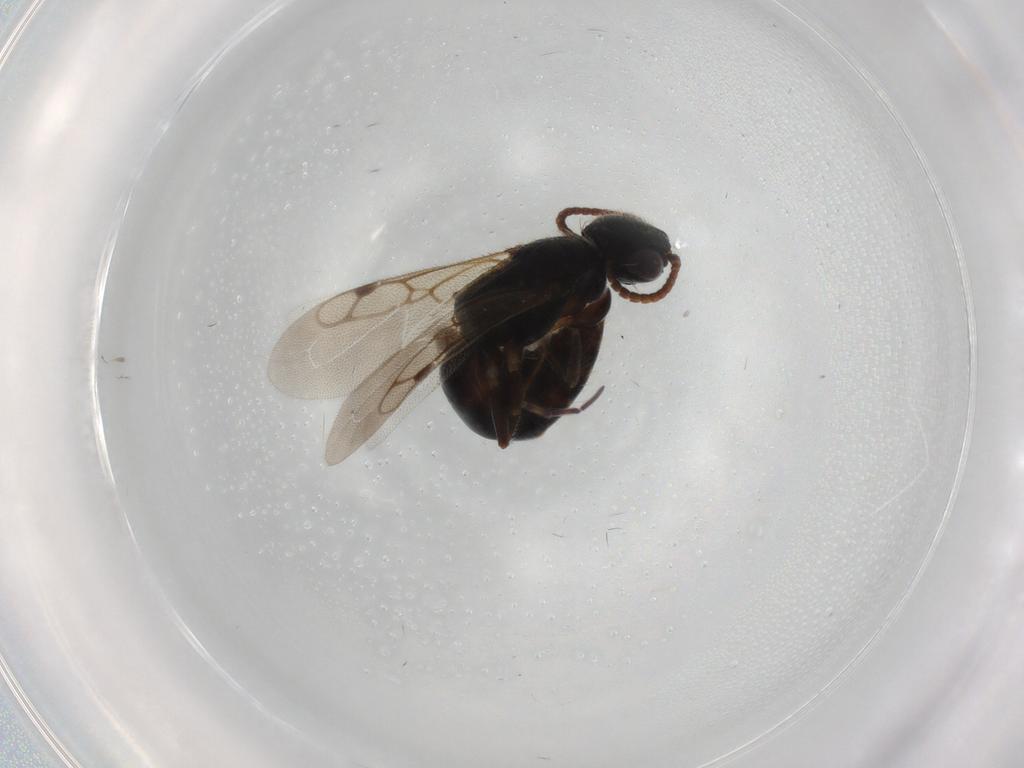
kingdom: Animalia
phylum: Arthropoda
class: Insecta
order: Hymenoptera
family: Bethylidae
